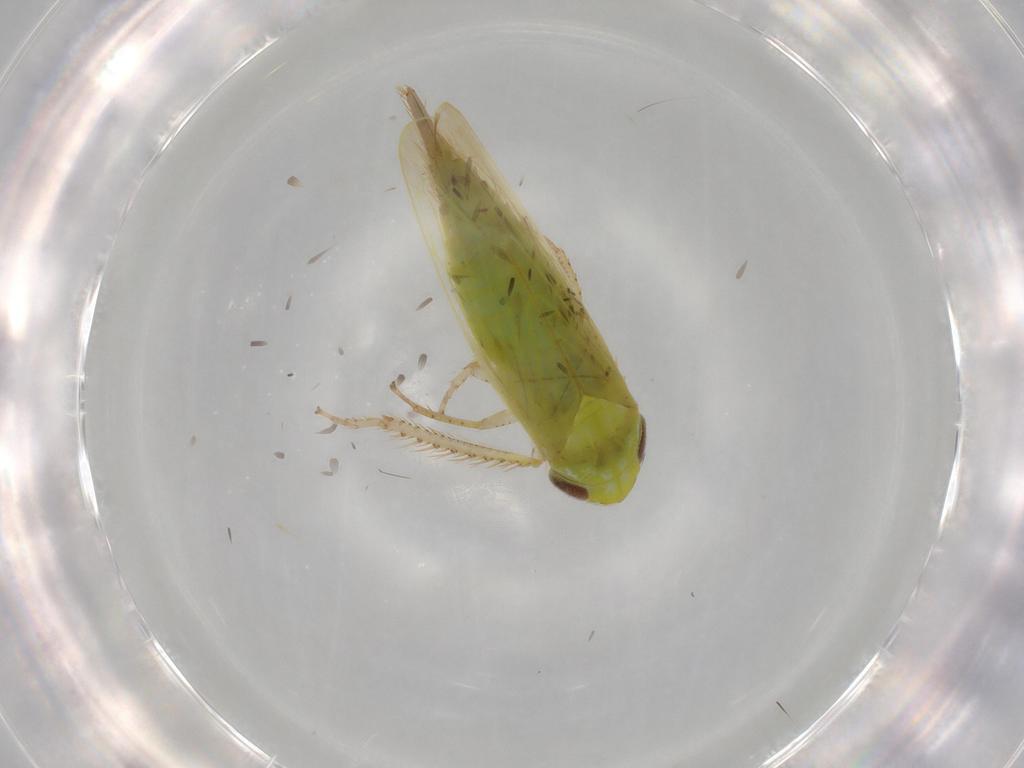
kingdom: Animalia
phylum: Arthropoda
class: Insecta
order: Hemiptera
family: Cicadellidae
